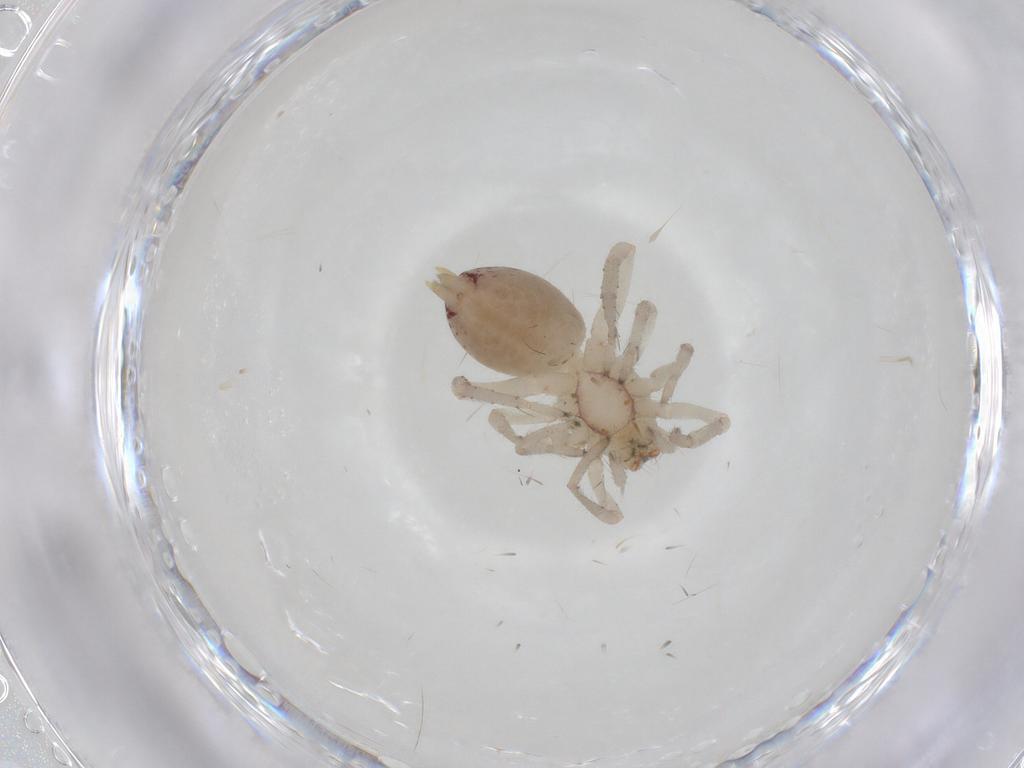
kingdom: Animalia
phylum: Arthropoda
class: Arachnida
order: Araneae
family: Clubionidae
